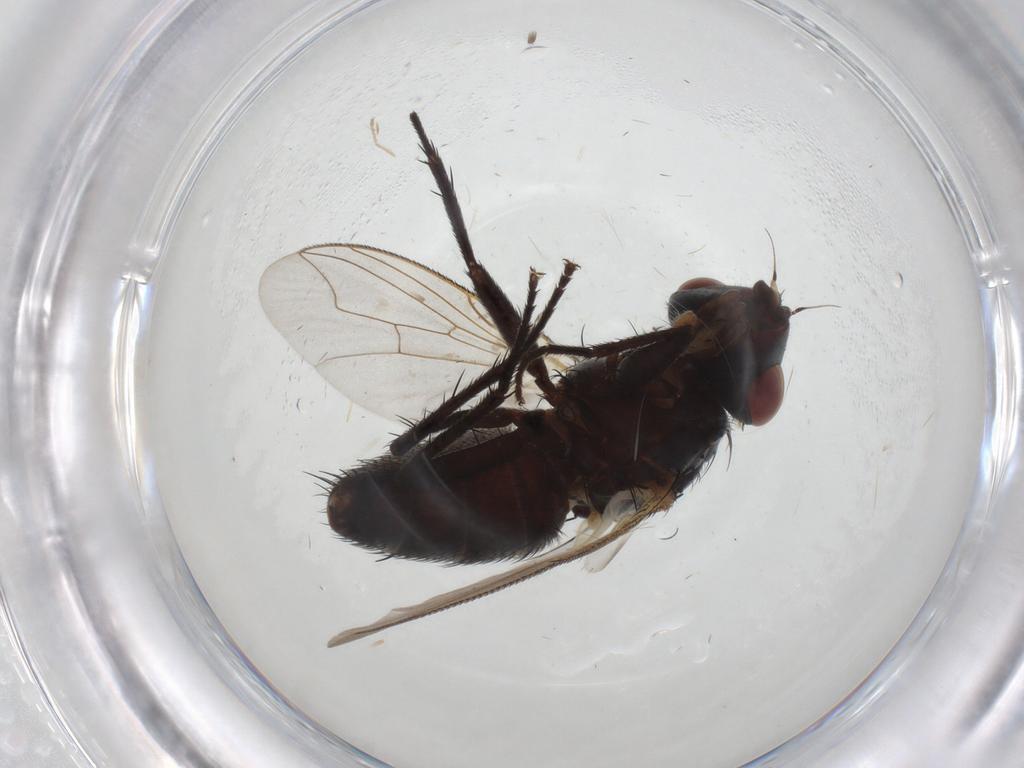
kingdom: Animalia
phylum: Arthropoda
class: Insecta
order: Diptera
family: Sarcophagidae
